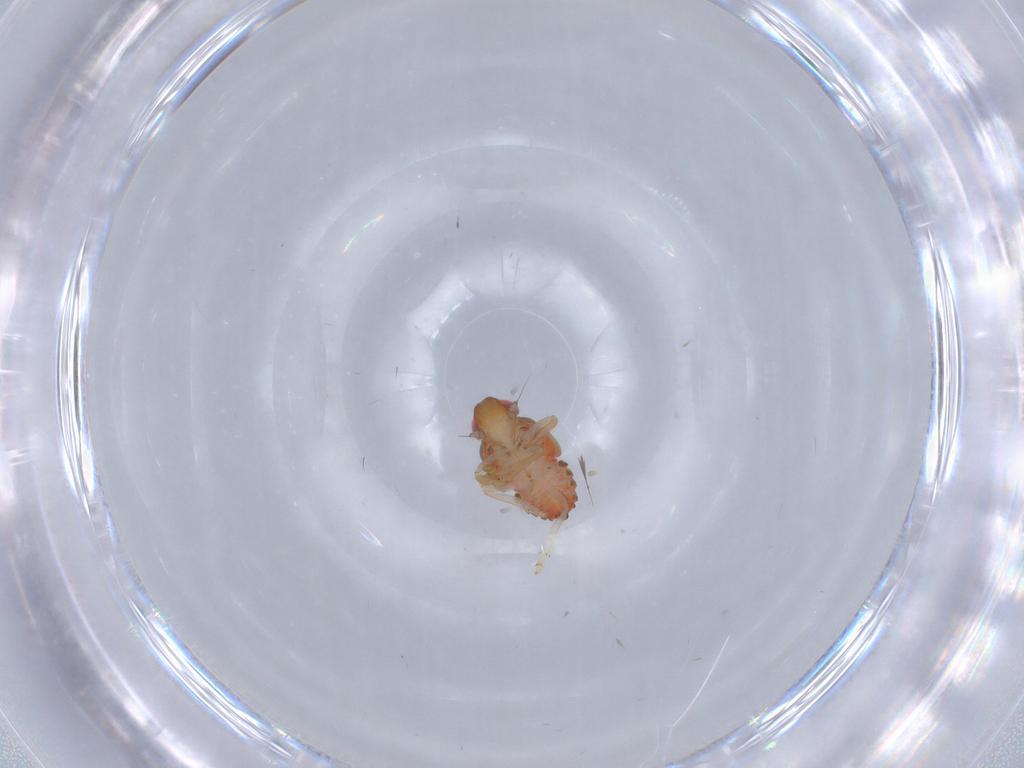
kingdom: Animalia
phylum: Arthropoda
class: Insecta
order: Hemiptera
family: Issidae
